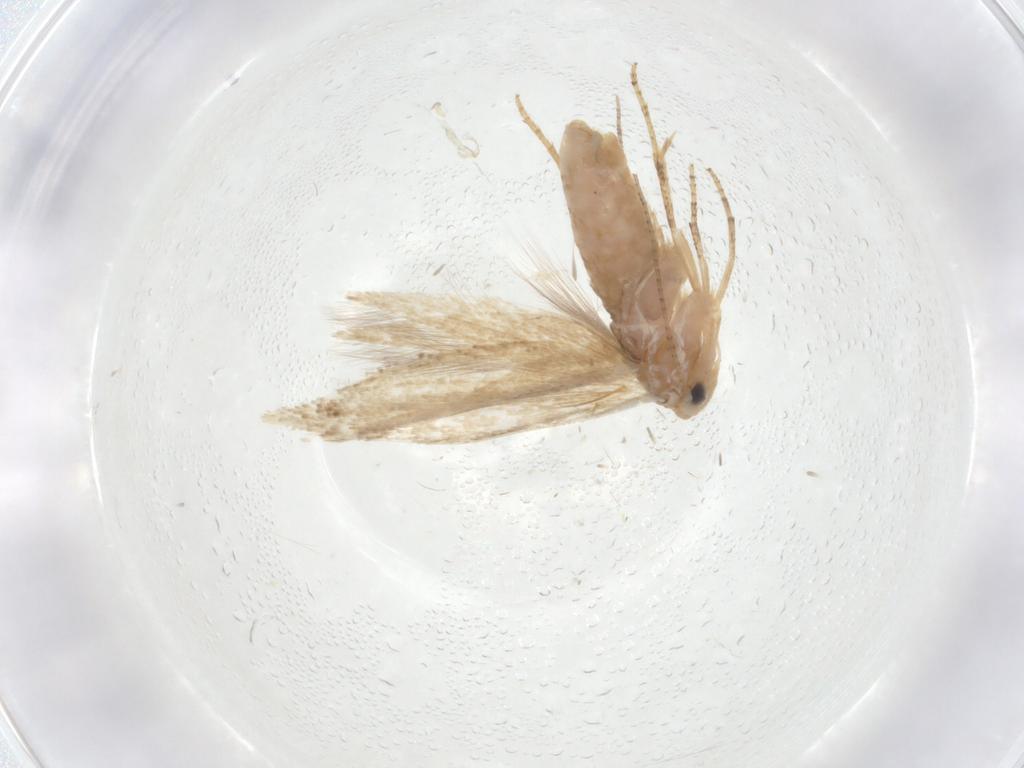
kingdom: Animalia
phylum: Arthropoda
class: Insecta
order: Lepidoptera
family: Bucculatricidae
